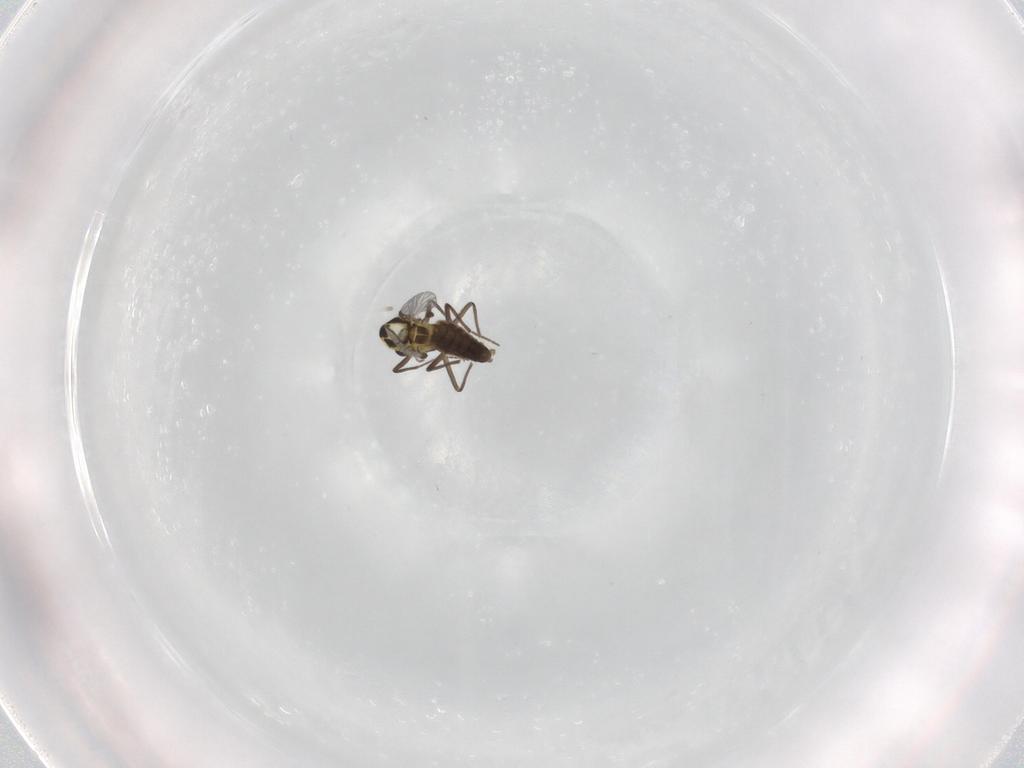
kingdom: Animalia
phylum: Arthropoda
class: Insecta
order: Diptera
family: Chironomidae
